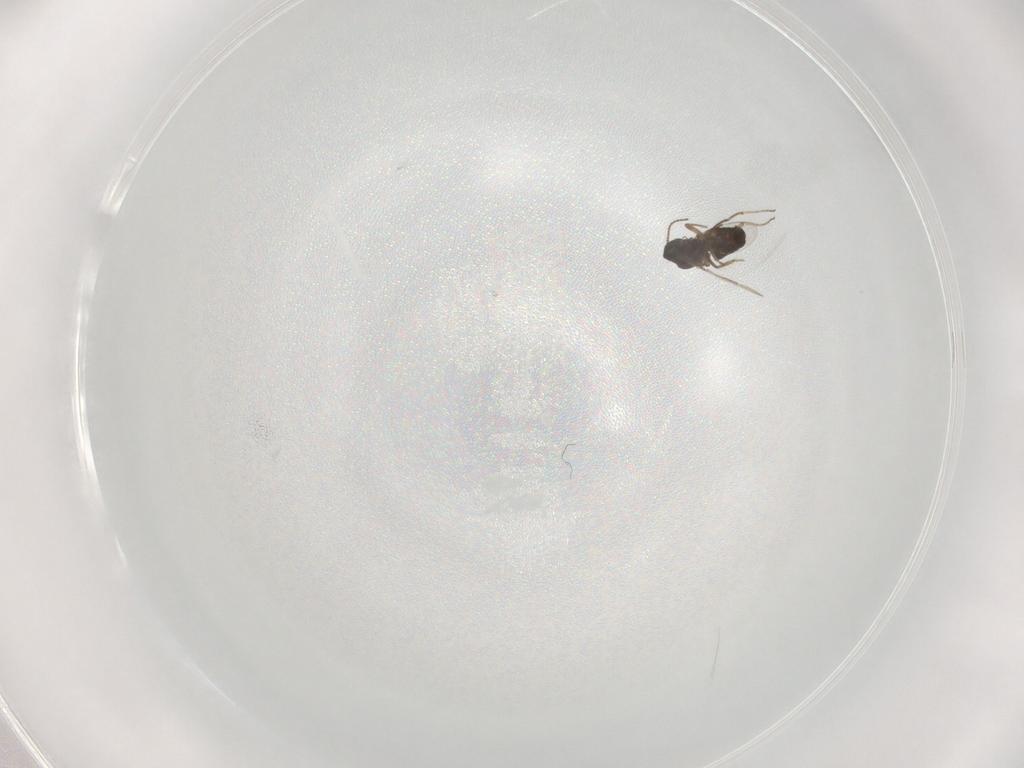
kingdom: Animalia
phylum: Arthropoda
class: Insecta
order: Diptera
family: Ceratopogonidae
